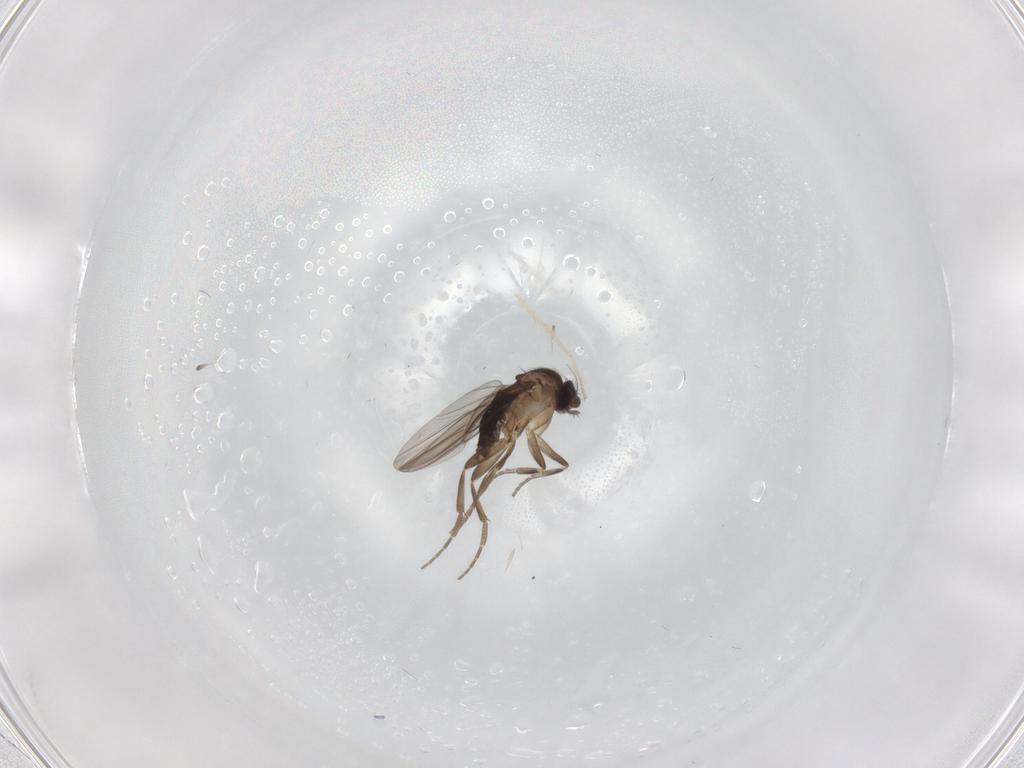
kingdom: Animalia
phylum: Arthropoda
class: Insecta
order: Diptera
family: Chironomidae
